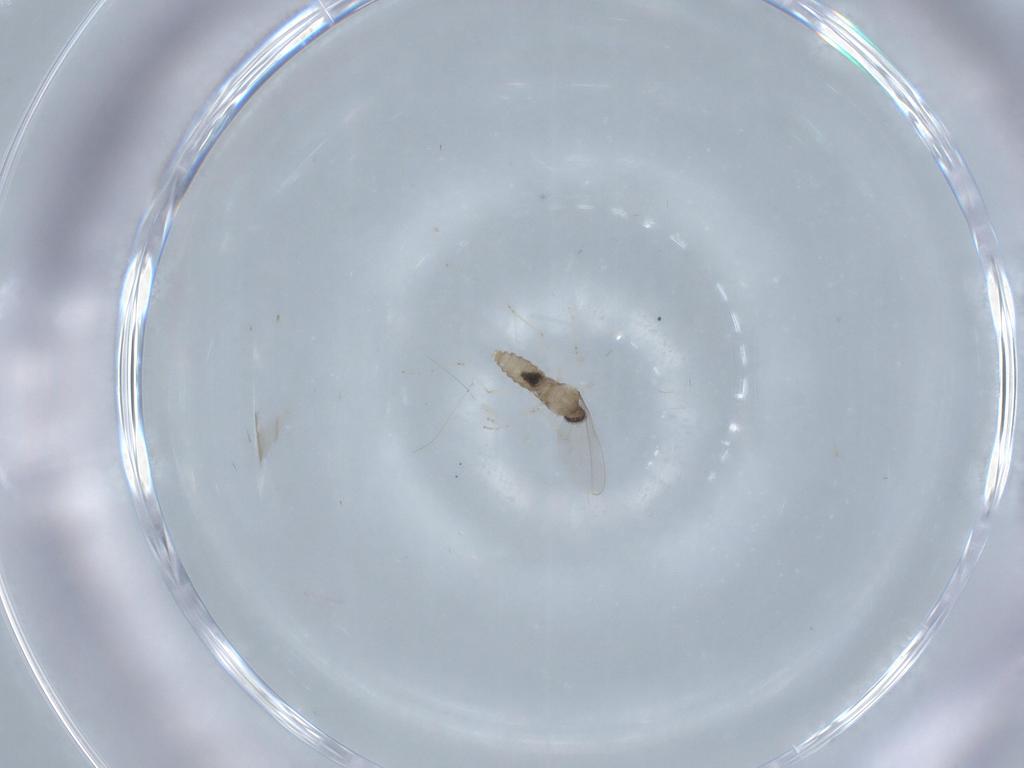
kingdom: Animalia
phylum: Arthropoda
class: Insecta
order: Diptera
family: Cecidomyiidae
